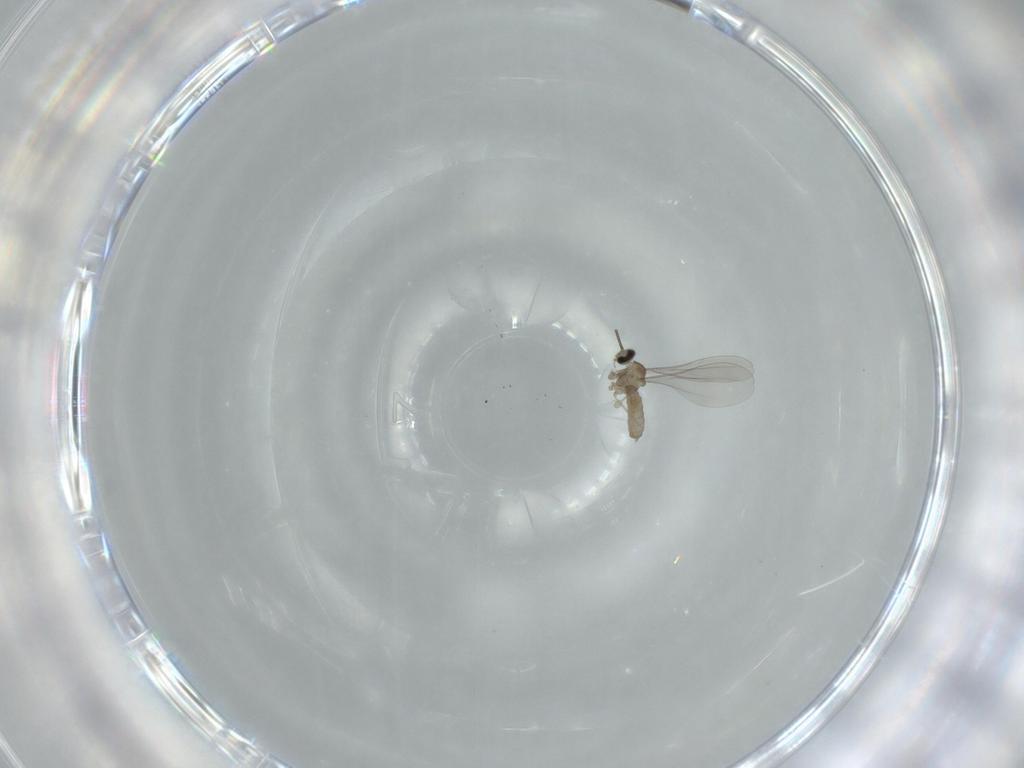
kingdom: Animalia
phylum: Arthropoda
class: Insecta
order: Diptera
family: Cecidomyiidae
